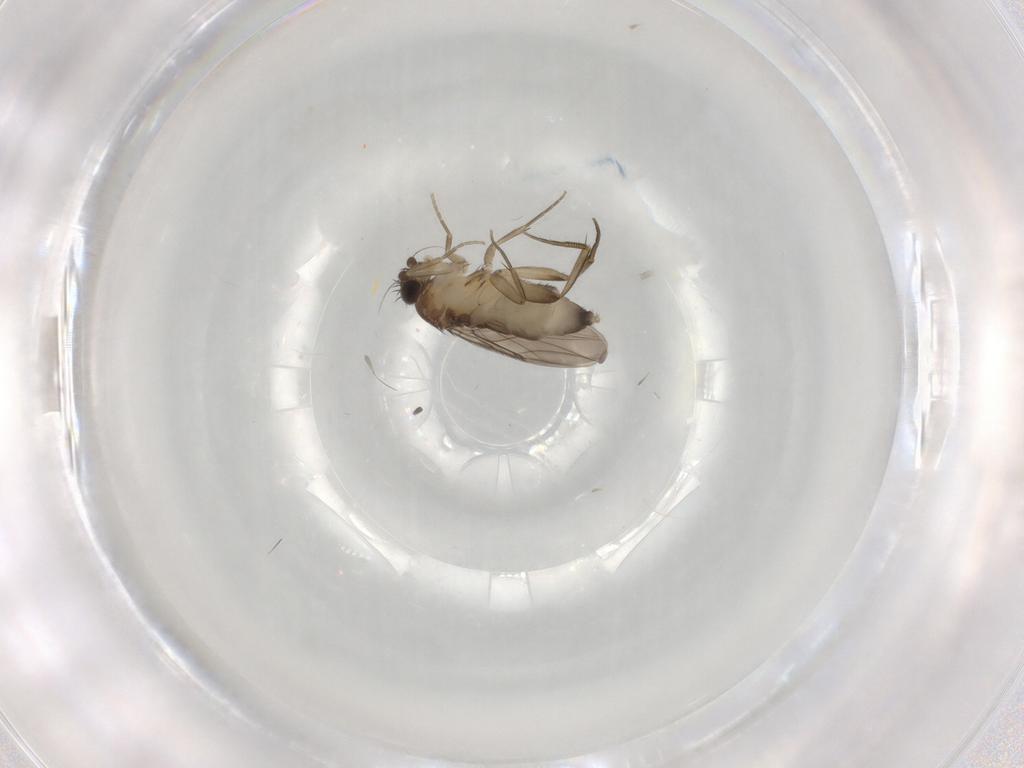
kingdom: Animalia
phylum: Arthropoda
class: Insecta
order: Diptera
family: Phoridae
